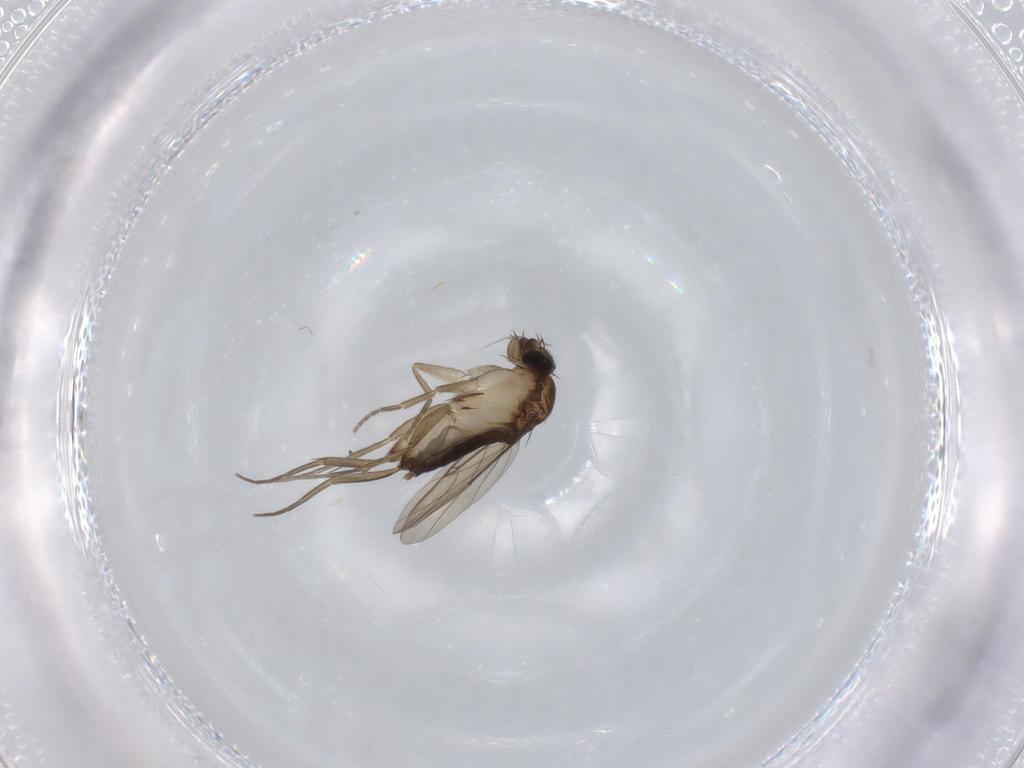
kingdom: Animalia
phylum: Arthropoda
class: Insecta
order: Diptera
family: Phoridae
